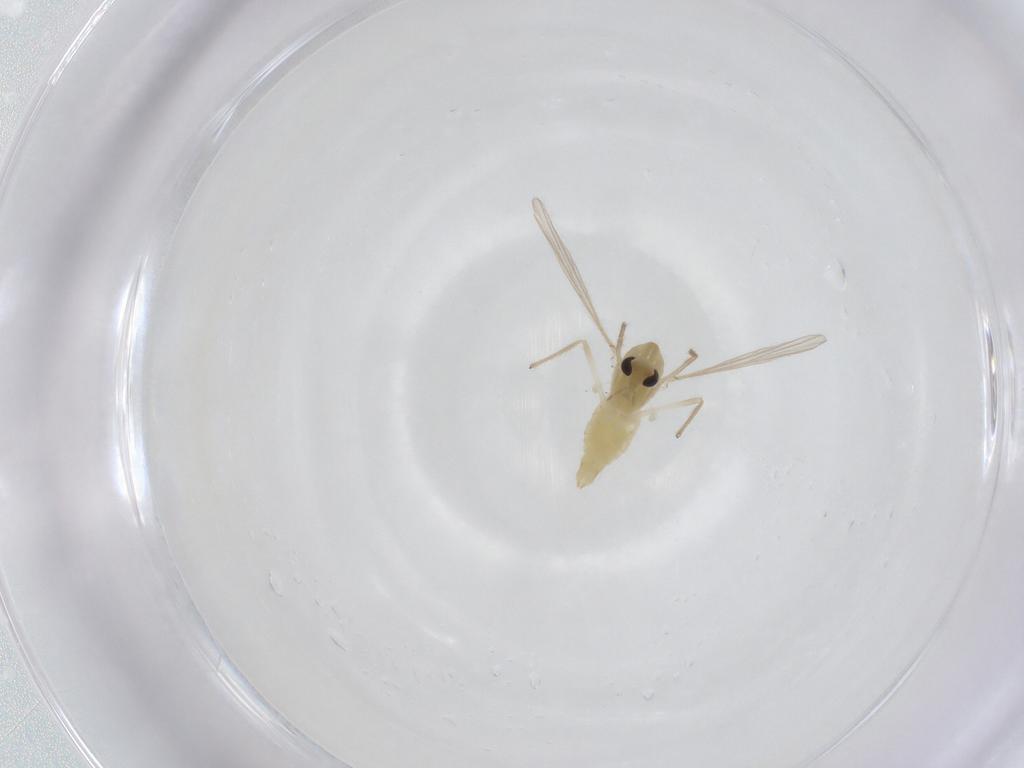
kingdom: Animalia
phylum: Arthropoda
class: Insecta
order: Diptera
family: Chironomidae
